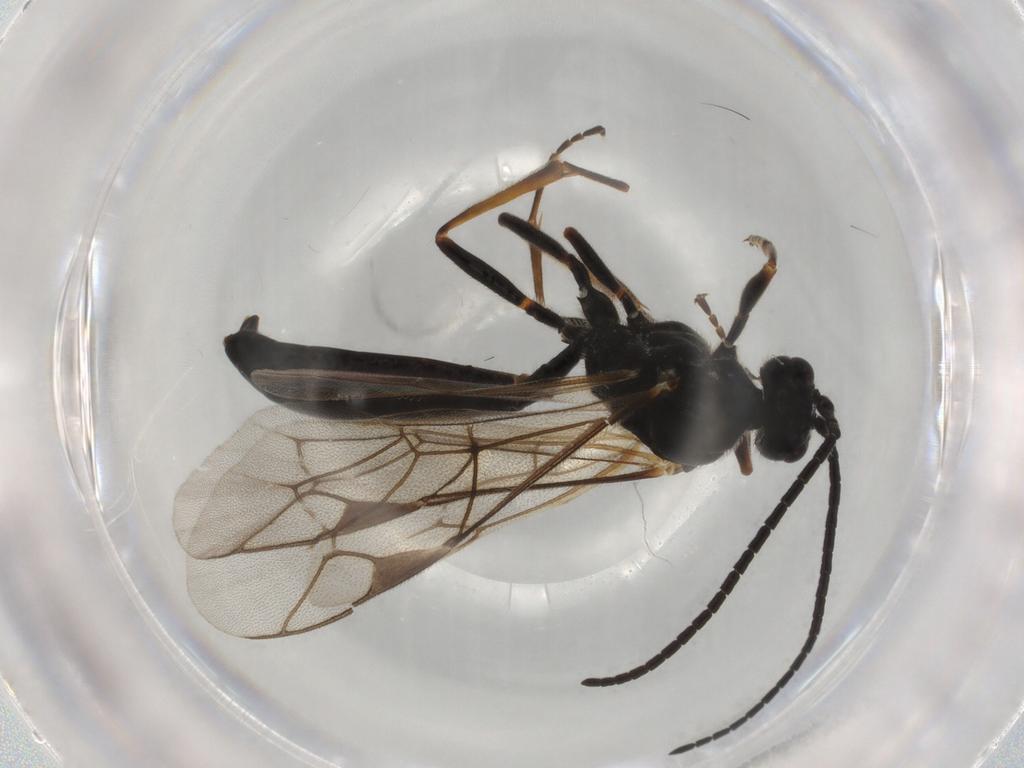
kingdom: Animalia
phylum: Arthropoda
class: Insecta
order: Hymenoptera
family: Ichneumonidae
